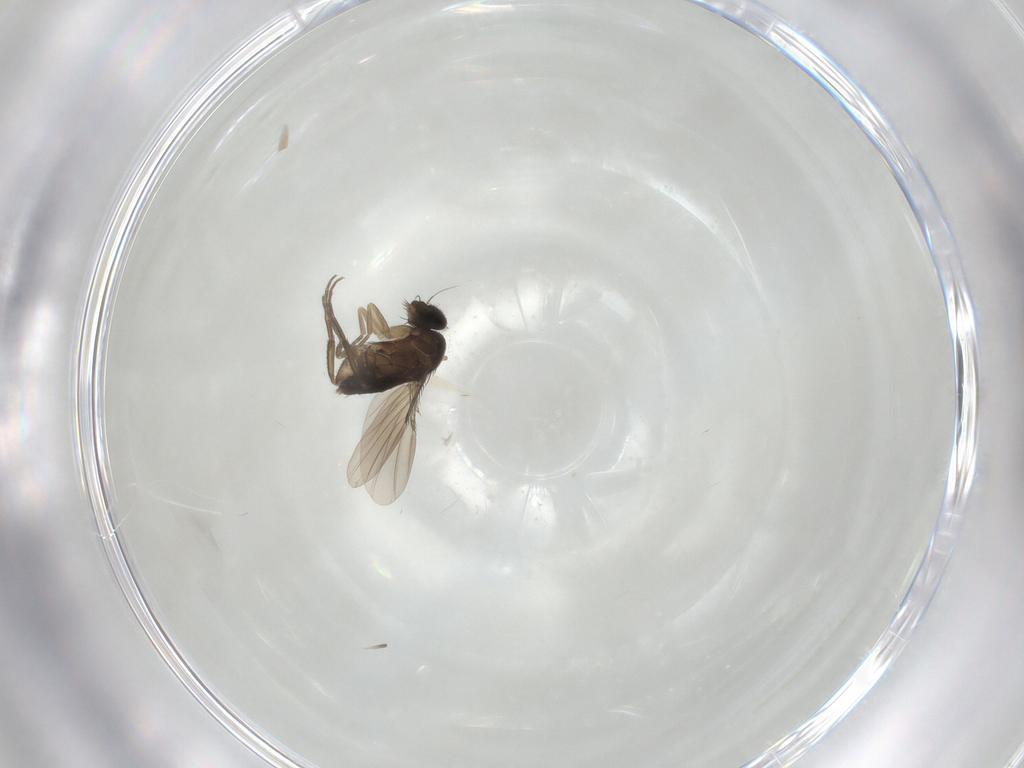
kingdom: Animalia
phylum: Arthropoda
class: Insecta
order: Diptera
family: Phoridae
